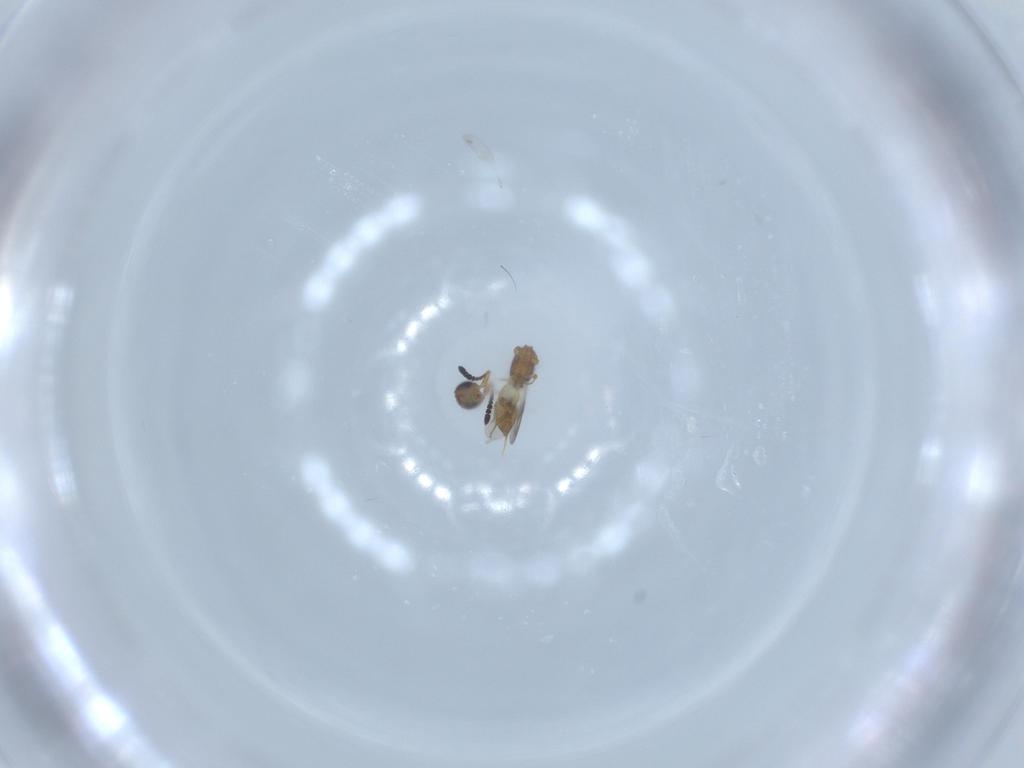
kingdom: Animalia
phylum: Arthropoda
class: Insecta
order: Hymenoptera
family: Ceraphronidae
